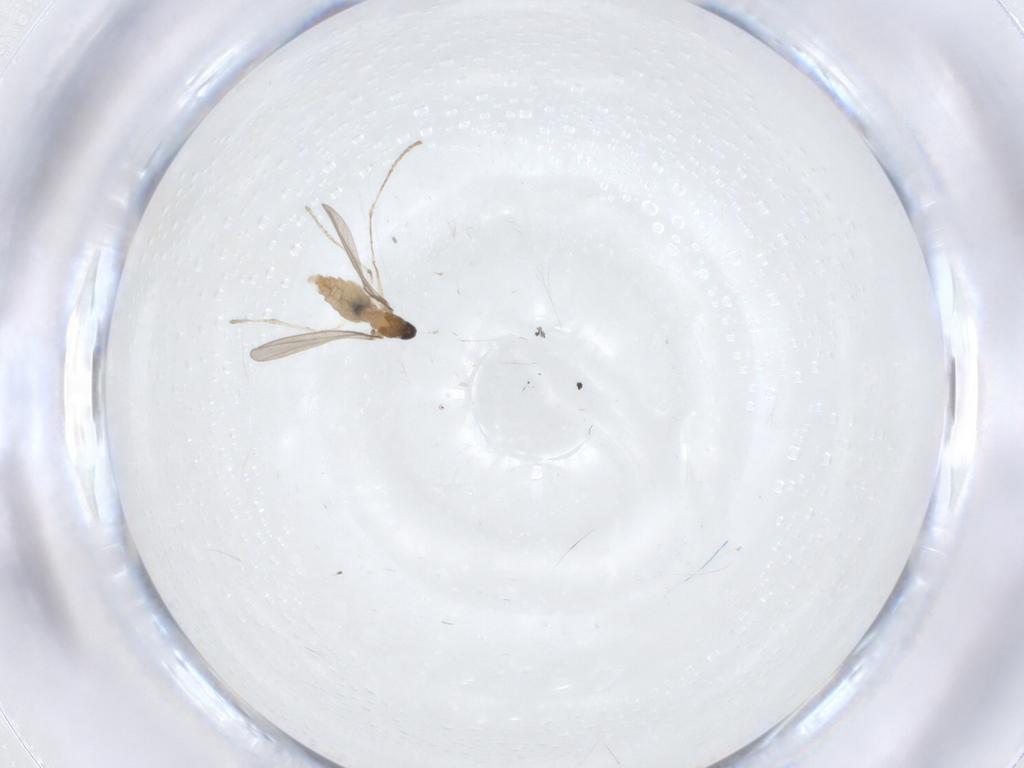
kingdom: Animalia
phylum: Arthropoda
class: Insecta
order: Diptera
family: Cecidomyiidae
